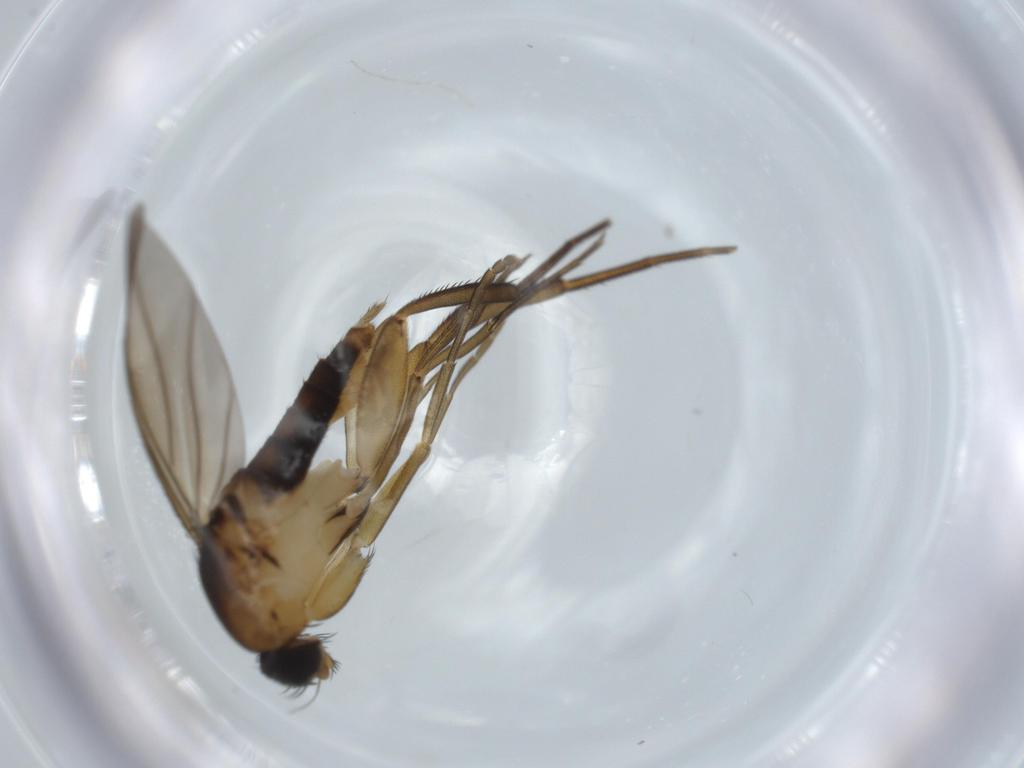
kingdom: Animalia
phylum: Arthropoda
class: Insecta
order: Diptera
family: Phoridae
